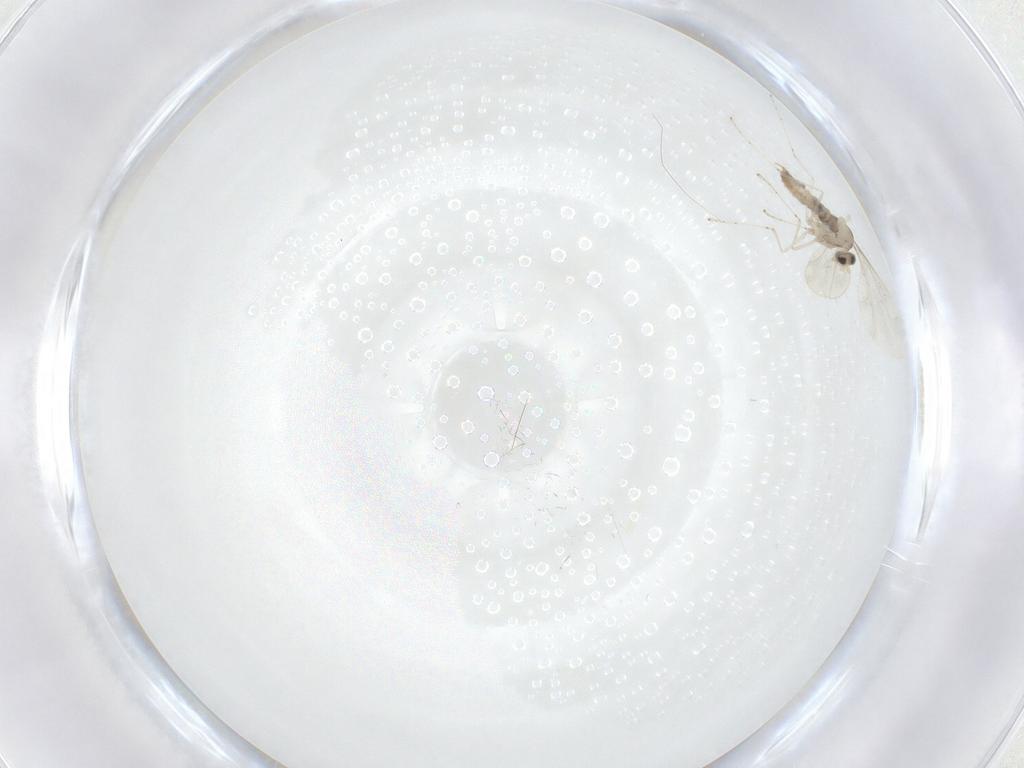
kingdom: Animalia
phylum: Arthropoda
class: Insecta
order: Diptera
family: Cecidomyiidae
